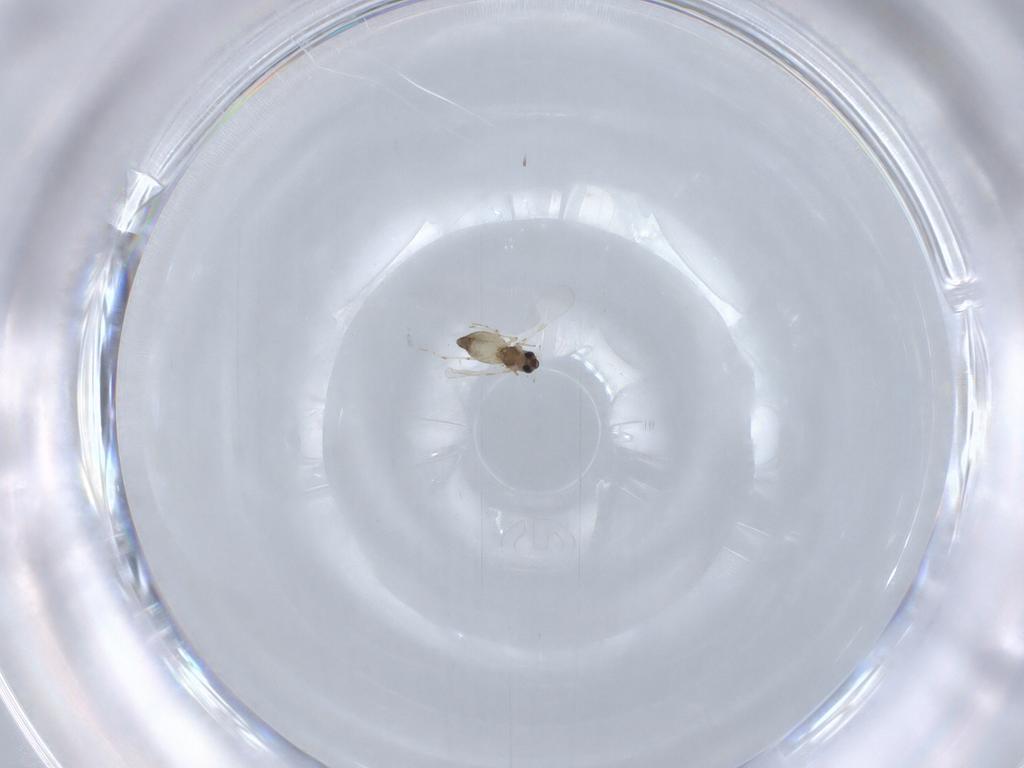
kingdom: Animalia
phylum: Arthropoda
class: Insecta
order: Diptera
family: Chironomidae
